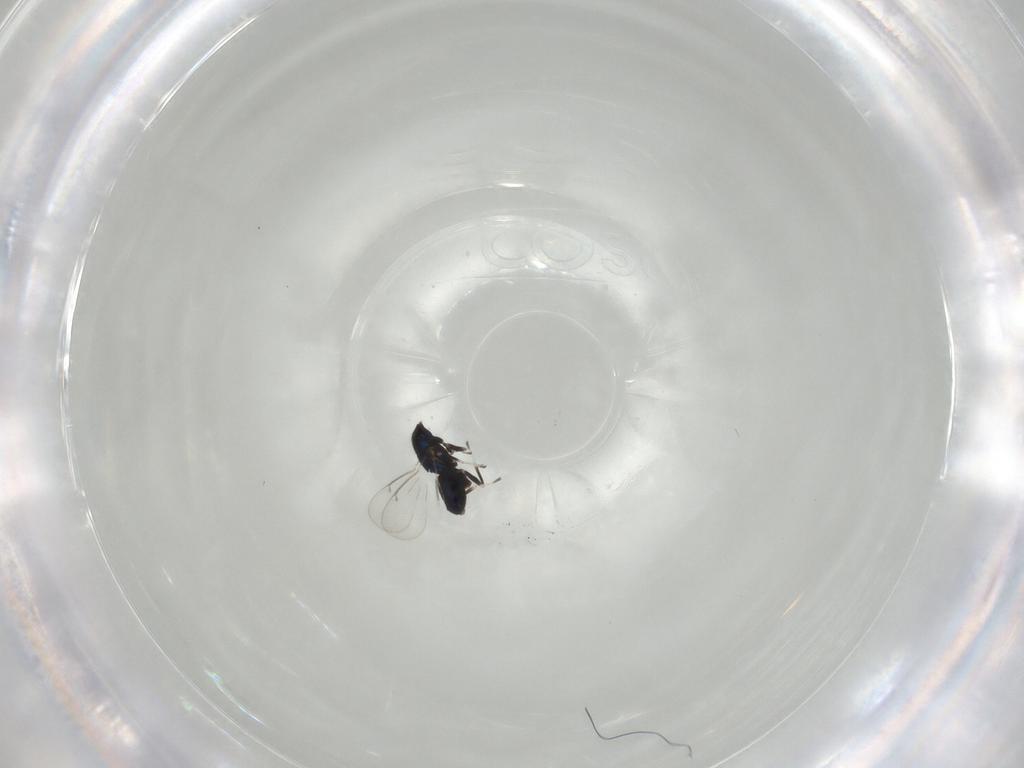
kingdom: Animalia
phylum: Arthropoda
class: Insecta
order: Hymenoptera
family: Eulophidae
